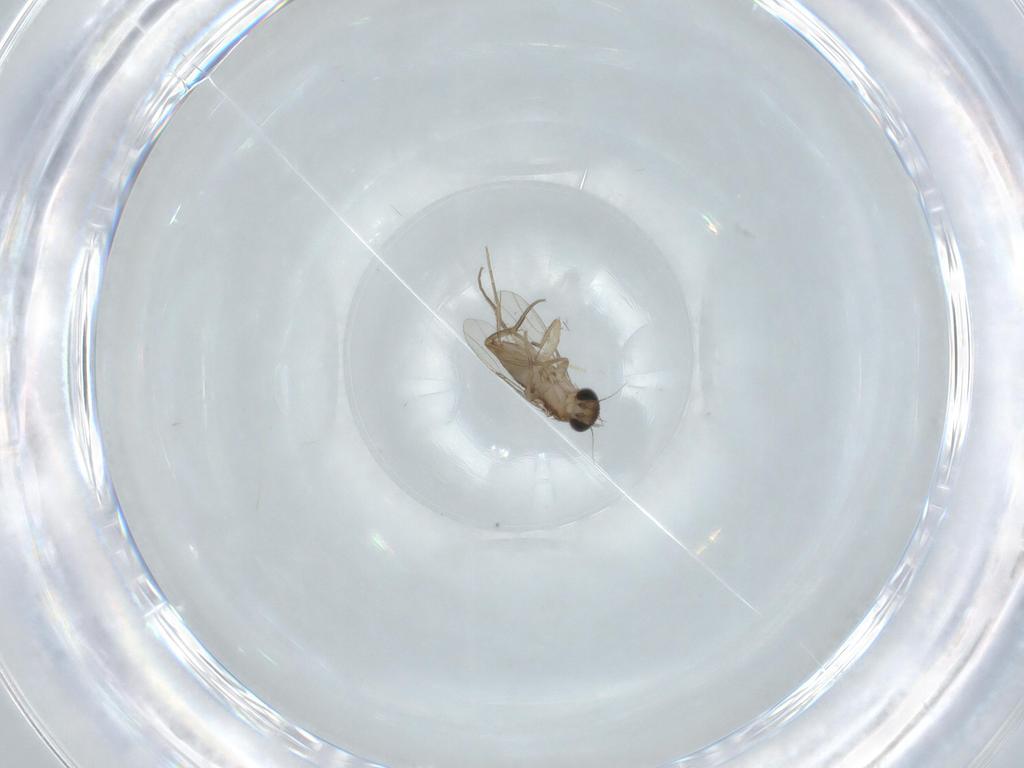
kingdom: Animalia
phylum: Arthropoda
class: Insecta
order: Diptera
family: Phoridae
